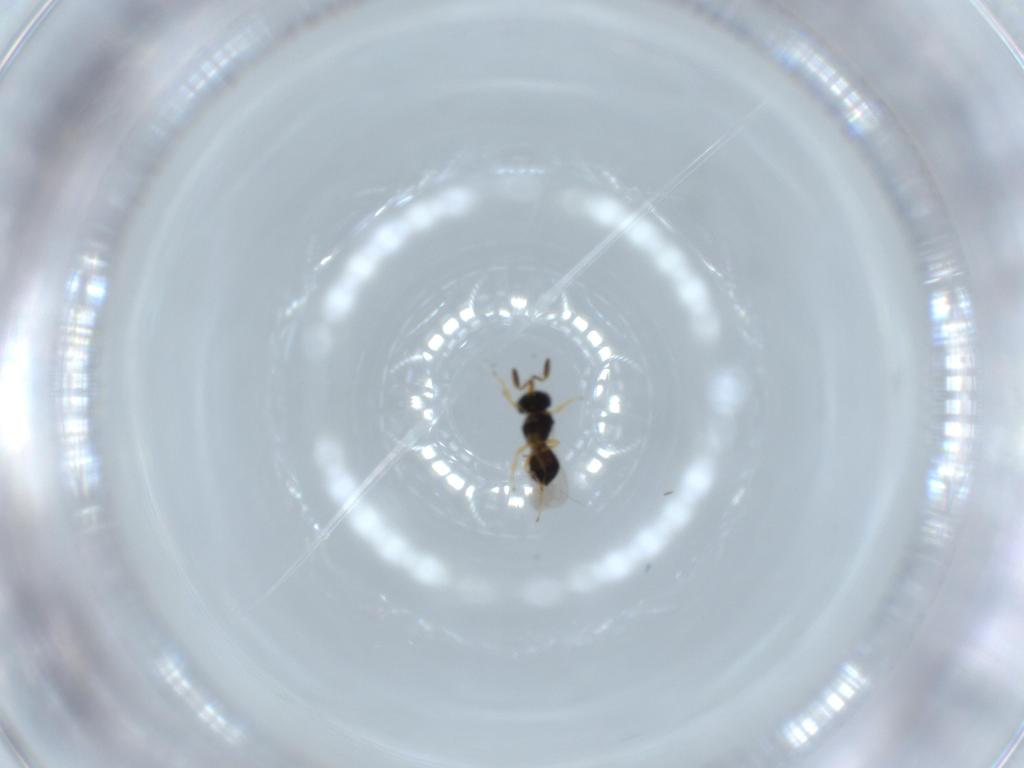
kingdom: Animalia
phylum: Arthropoda
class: Insecta
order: Hymenoptera
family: Scelionidae
